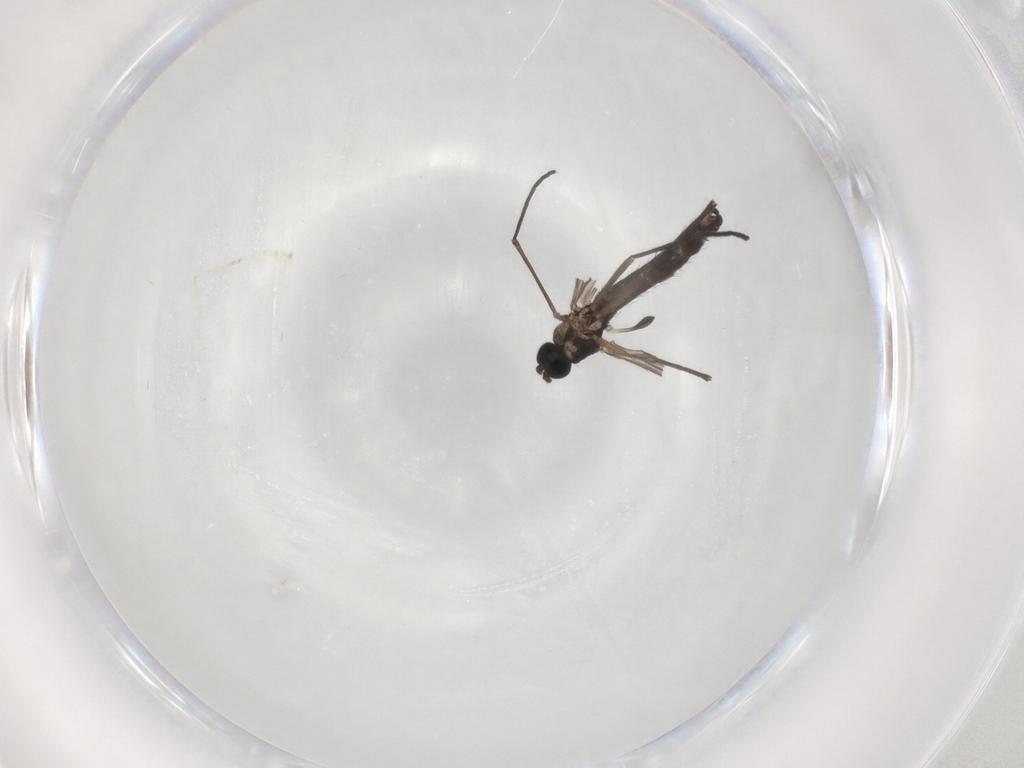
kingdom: Animalia
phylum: Arthropoda
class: Insecta
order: Diptera
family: Sciaridae
